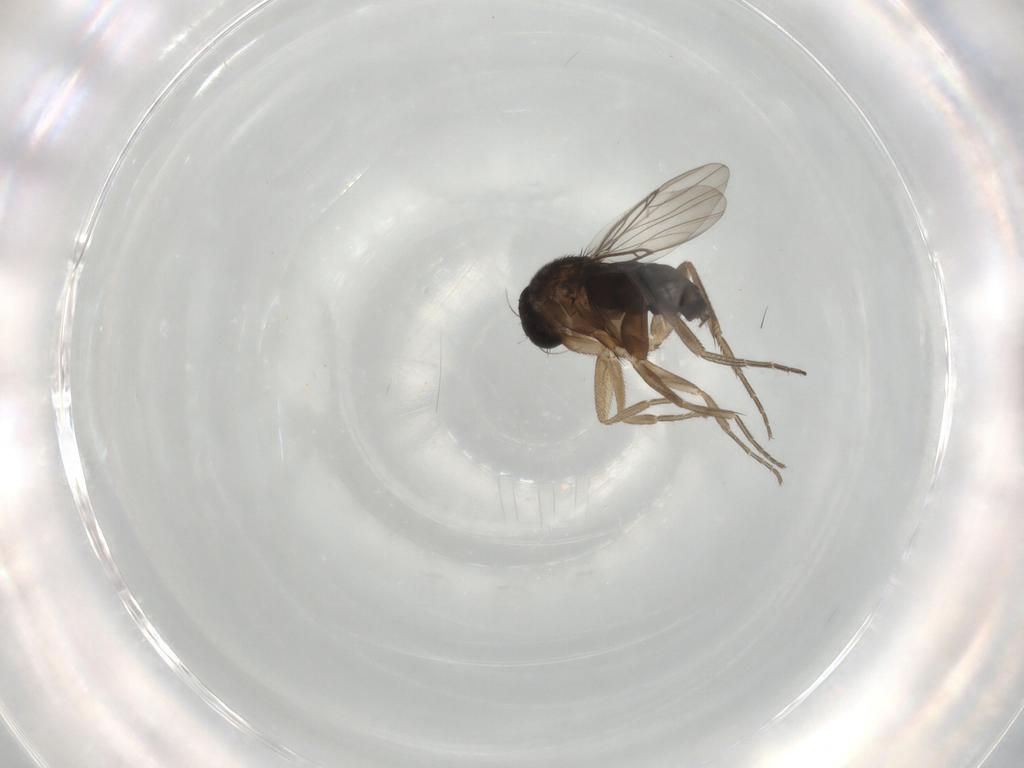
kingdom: Animalia
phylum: Arthropoda
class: Insecta
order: Diptera
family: Phoridae
